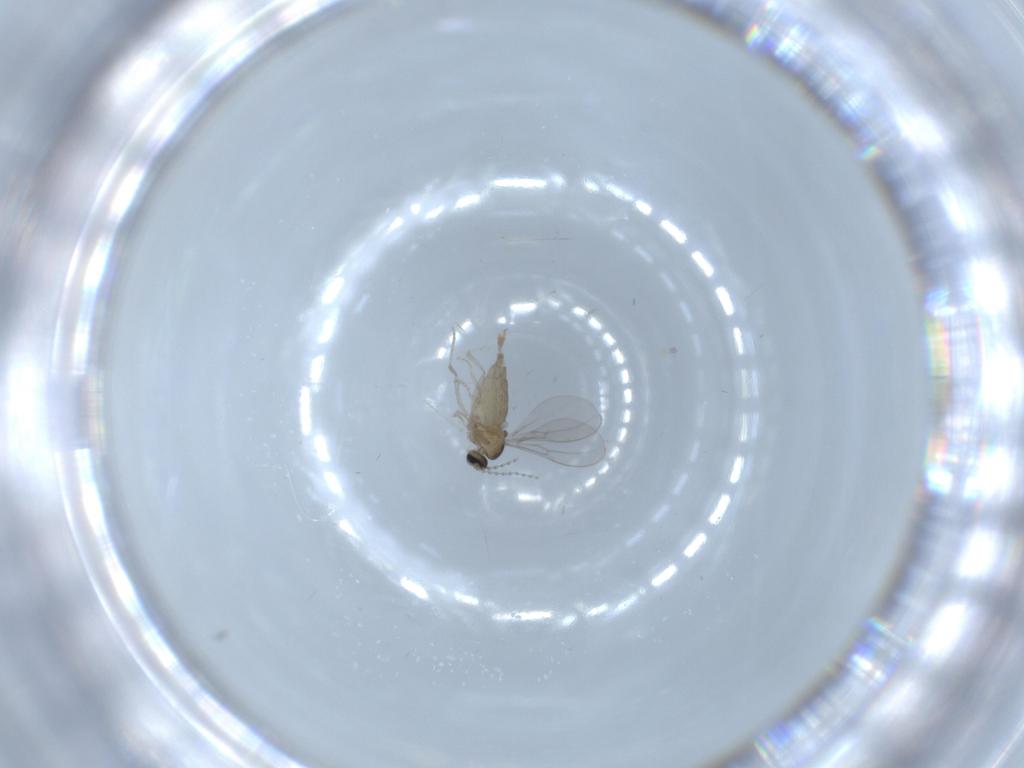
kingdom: Animalia
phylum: Arthropoda
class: Insecta
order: Diptera
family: Cecidomyiidae
